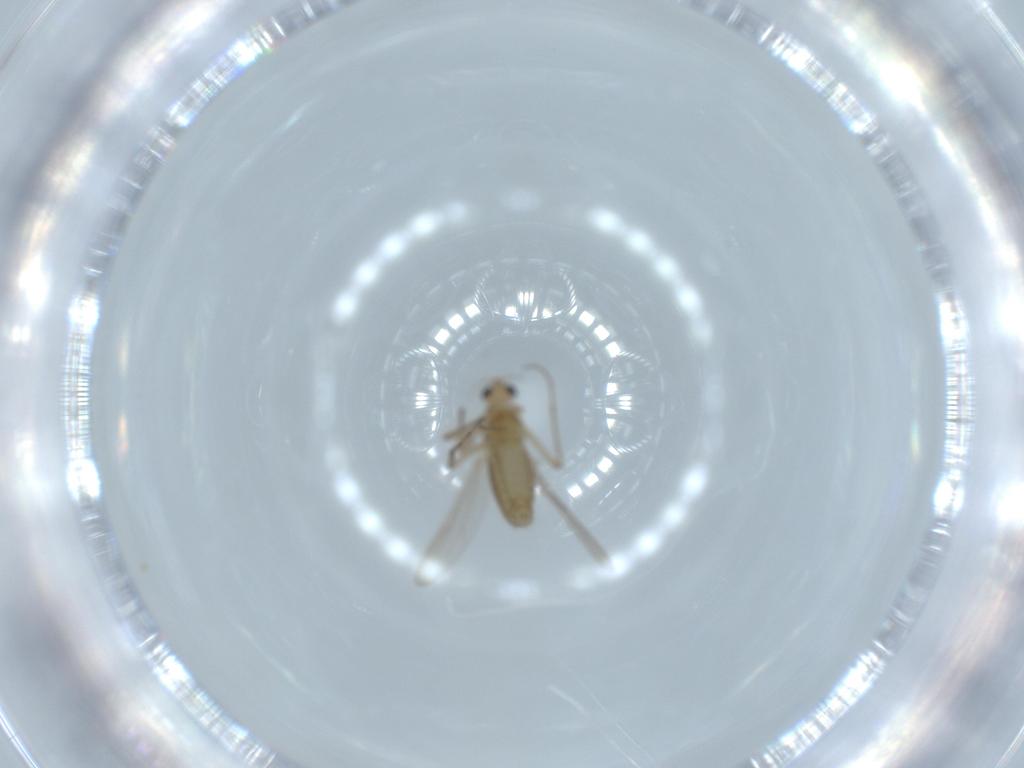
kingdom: Animalia
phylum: Arthropoda
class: Insecta
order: Diptera
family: Chironomidae
